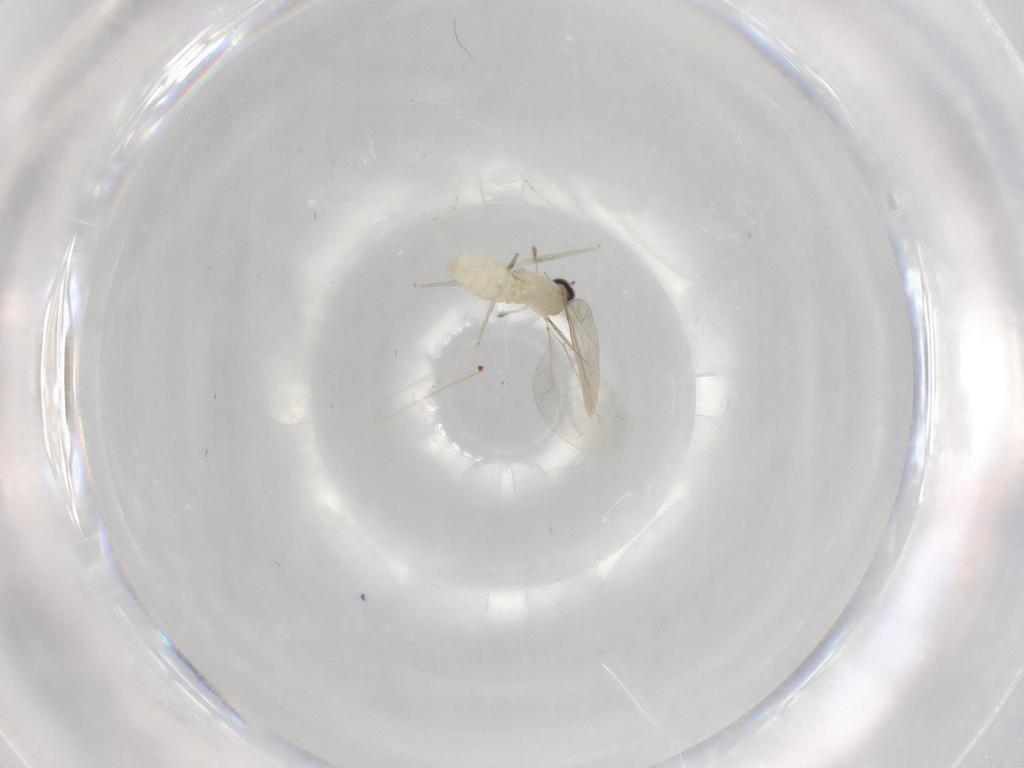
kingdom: Animalia
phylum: Arthropoda
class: Insecta
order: Diptera
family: Cecidomyiidae
